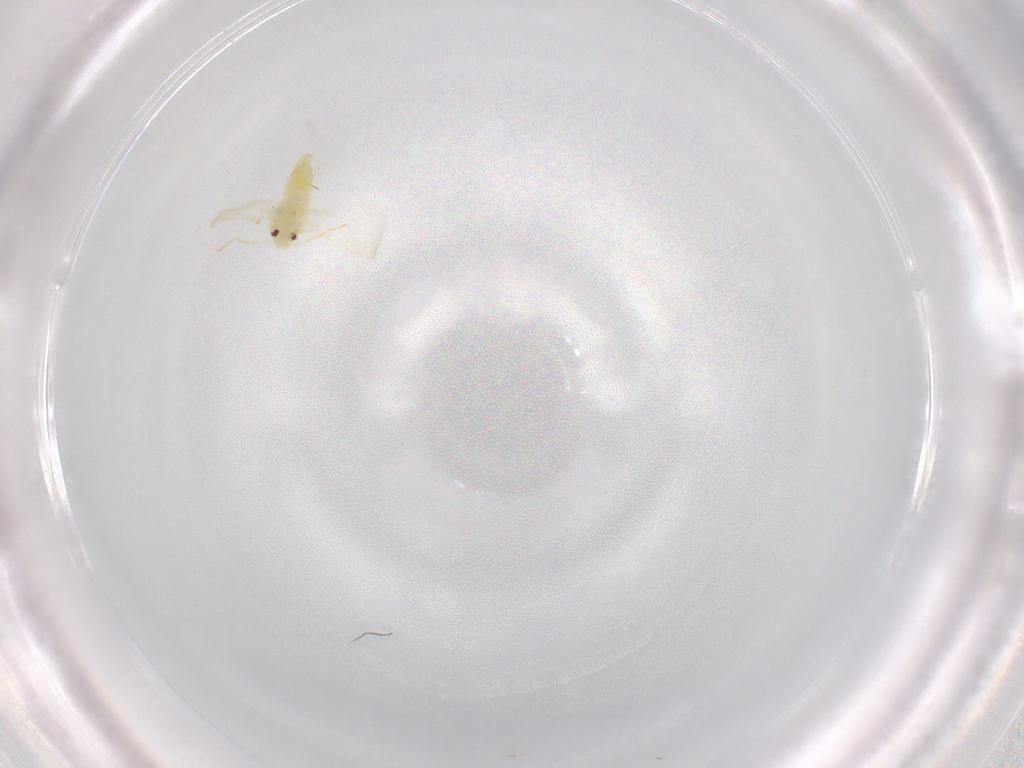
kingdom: Animalia
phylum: Arthropoda
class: Insecta
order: Hemiptera
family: Aleyrodidae
